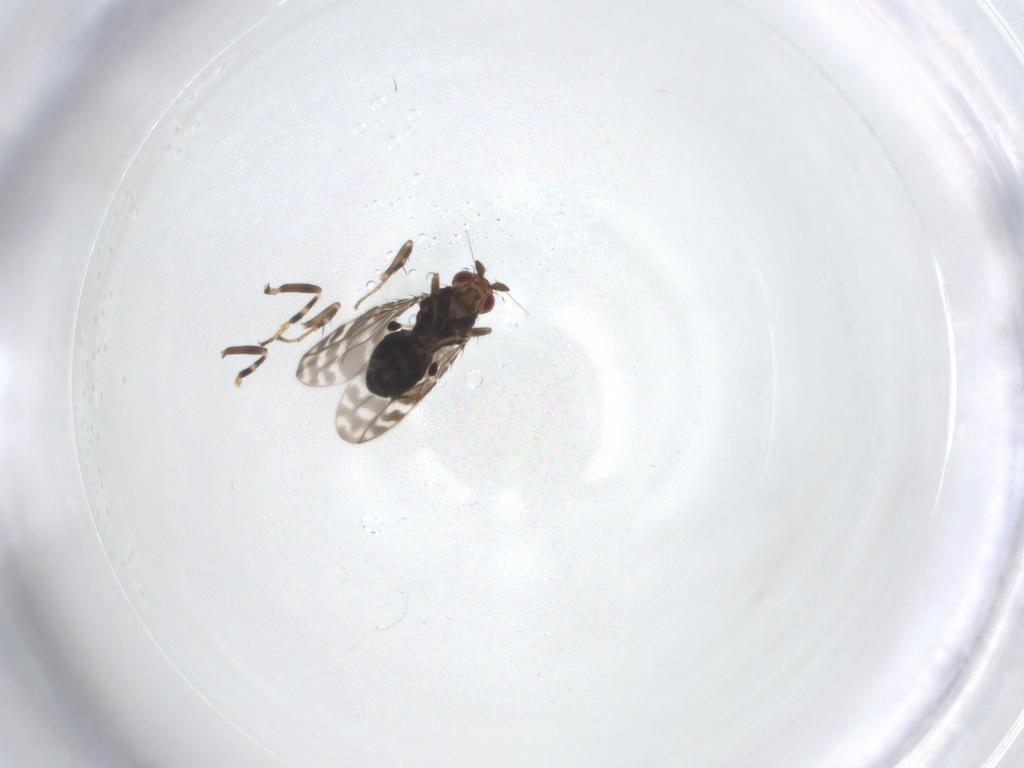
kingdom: Animalia
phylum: Arthropoda
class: Insecta
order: Diptera
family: Sphaeroceridae
